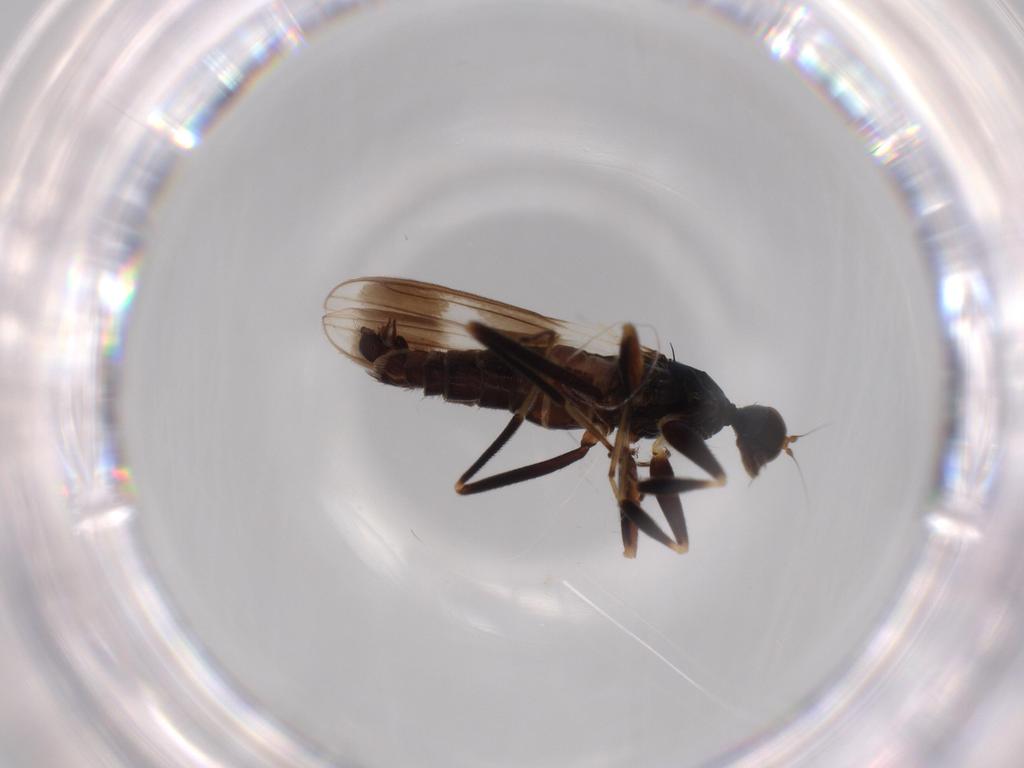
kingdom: Animalia
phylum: Arthropoda
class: Insecta
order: Diptera
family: Hybotidae
